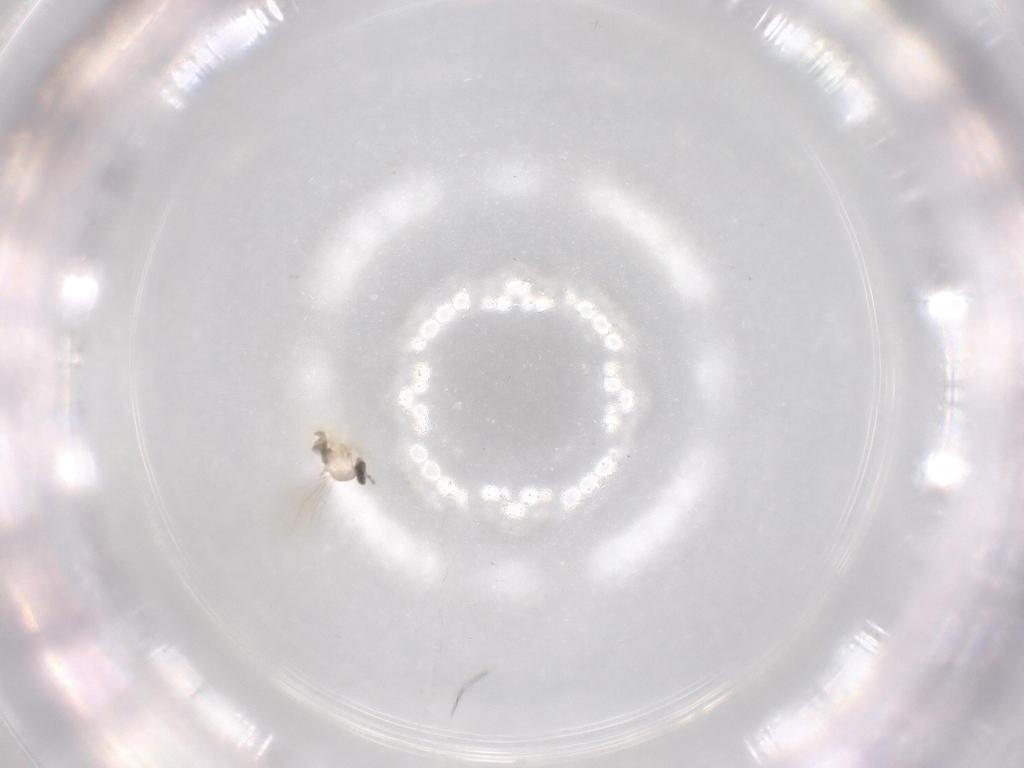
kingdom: Animalia
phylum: Arthropoda
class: Insecta
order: Diptera
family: Cecidomyiidae
